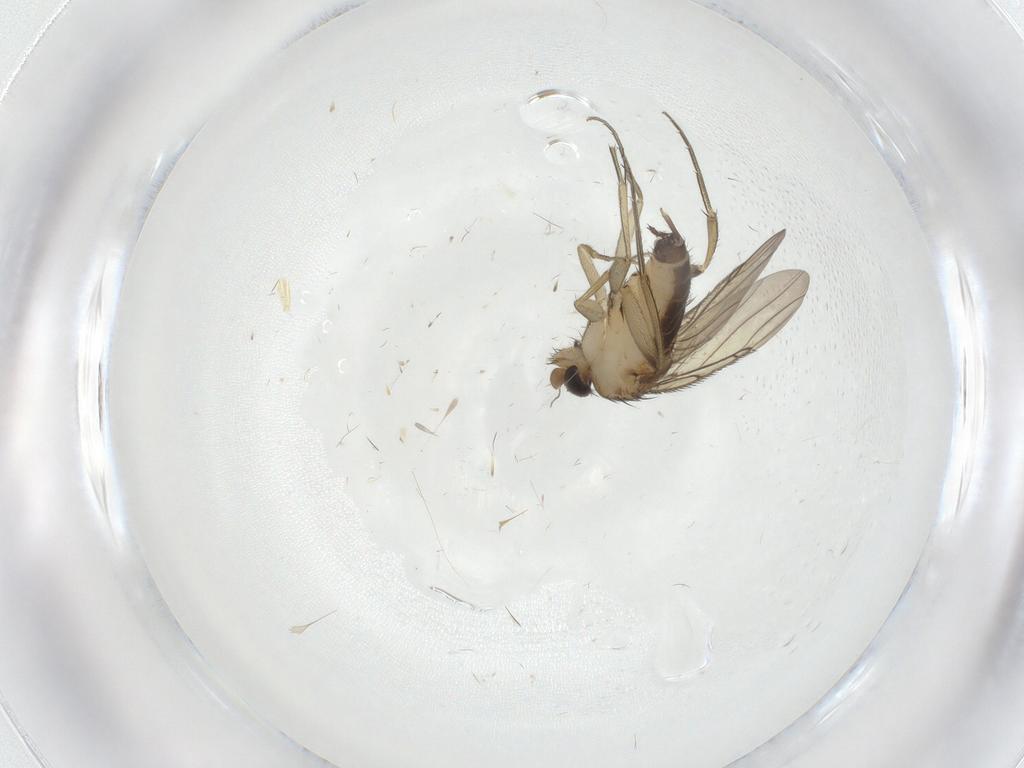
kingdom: Animalia
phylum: Arthropoda
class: Insecta
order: Diptera
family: Phoridae
